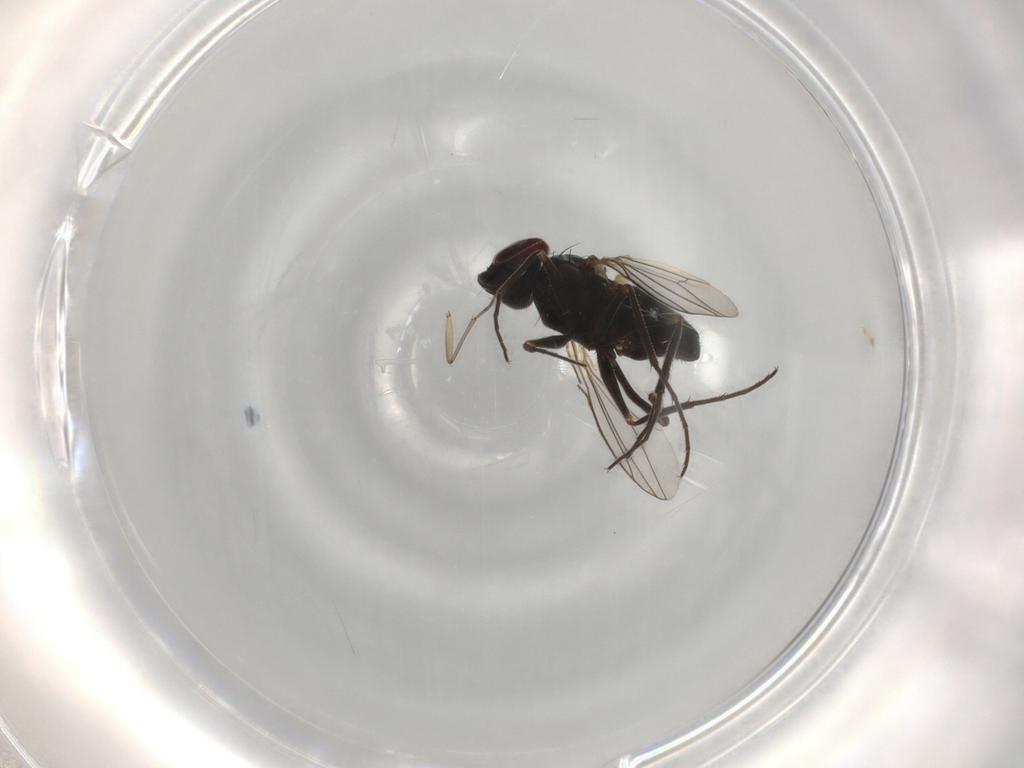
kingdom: Animalia
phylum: Arthropoda
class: Insecta
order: Diptera
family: Dolichopodidae
